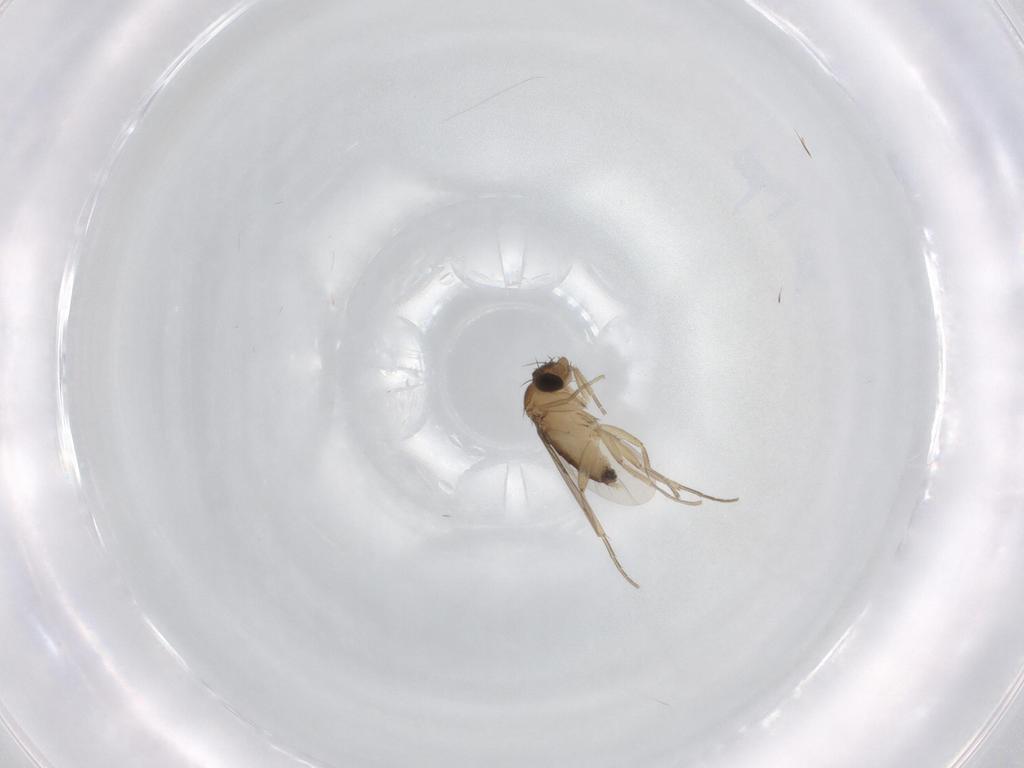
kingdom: Animalia
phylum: Arthropoda
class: Insecta
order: Diptera
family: Phoridae
